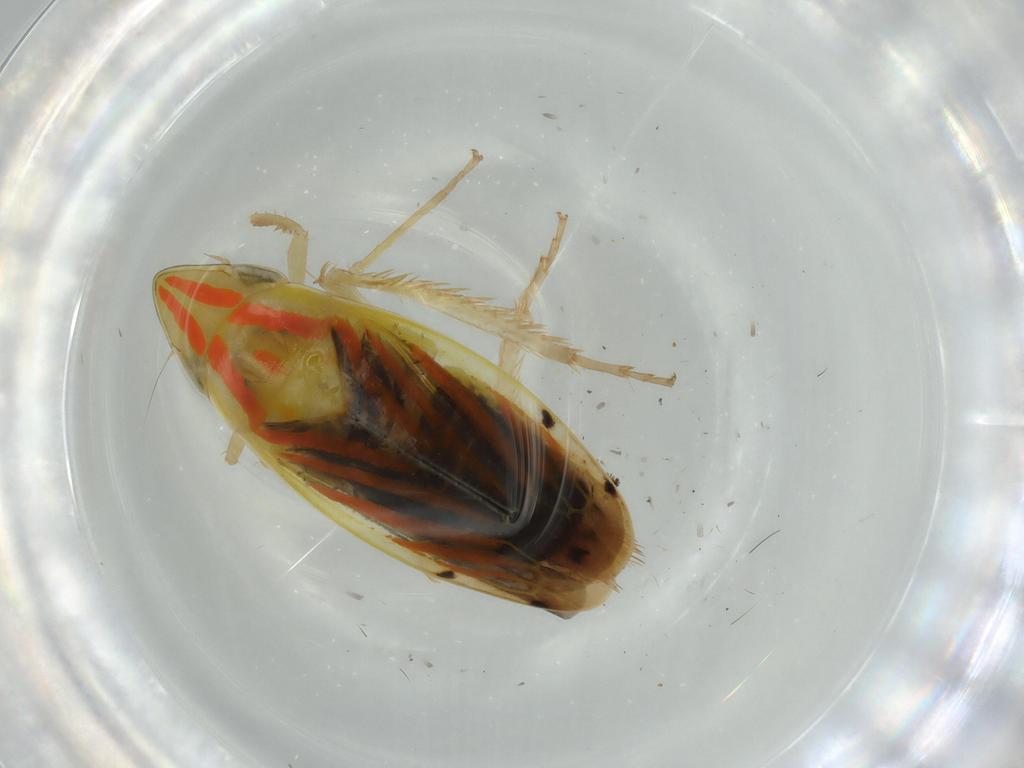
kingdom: Animalia
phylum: Arthropoda
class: Insecta
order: Hemiptera
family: Cicadellidae
